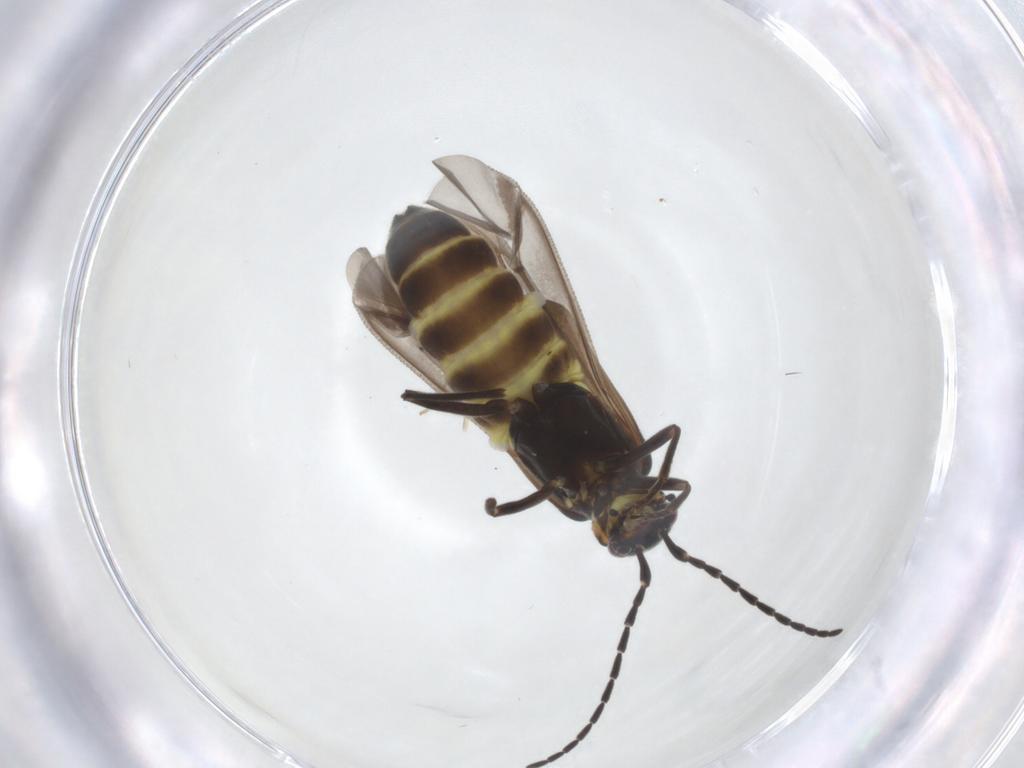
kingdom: Animalia
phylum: Arthropoda
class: Insecta
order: Coleoptera
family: Cantharidae
